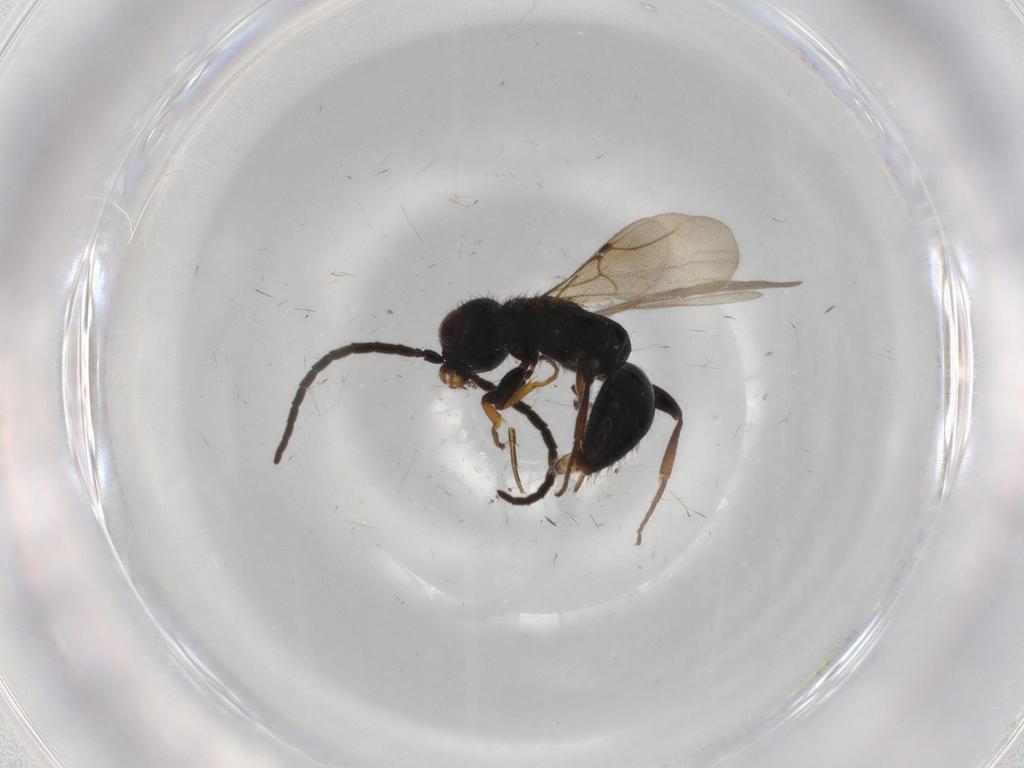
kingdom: Animalia
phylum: Arthropoda
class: Insecta
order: Hymenoptera
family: Bethylidae
